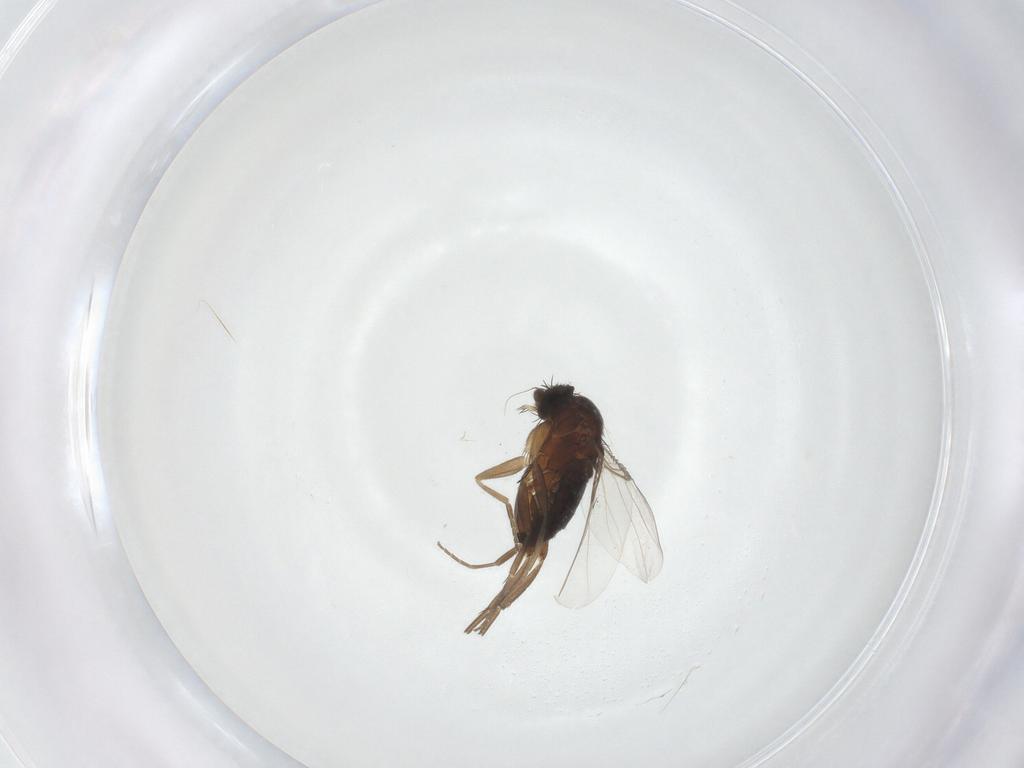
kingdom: Animalia
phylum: Arthropoda
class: Insecta
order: Diptera
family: Phoridae
